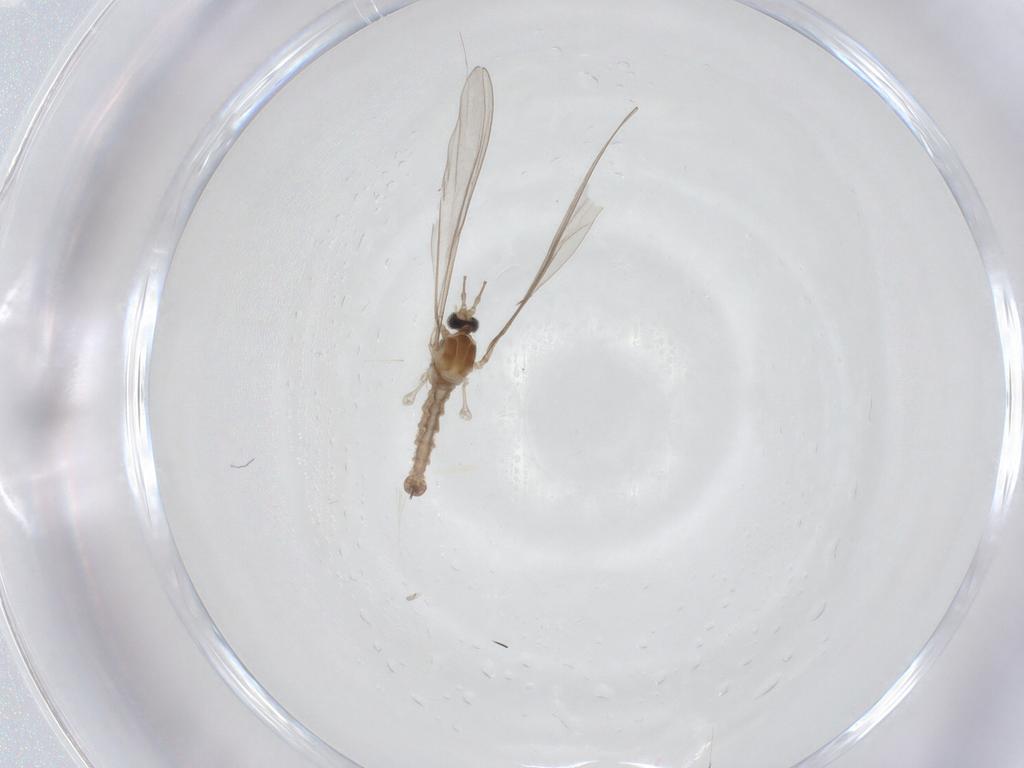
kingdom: Animalia
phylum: Arthropoda
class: Insecta
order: Diptera
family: Cecidomyiidae
